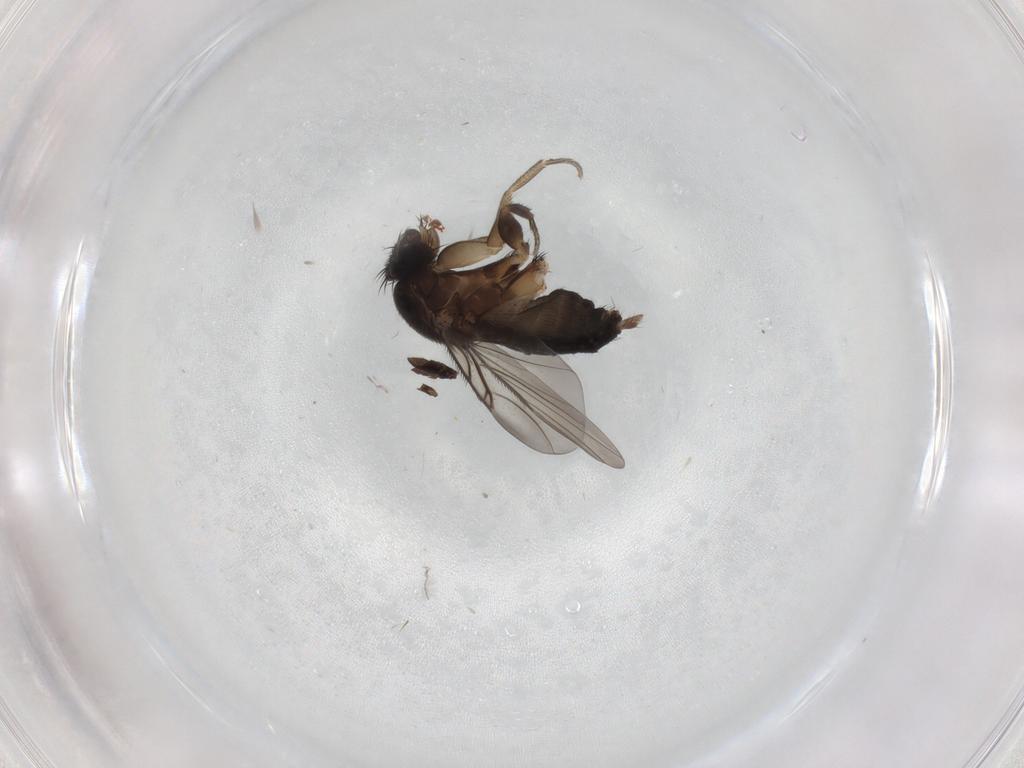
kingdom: Animalia
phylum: Arthropoda
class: Insecta
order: Diptera
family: Phoridae
